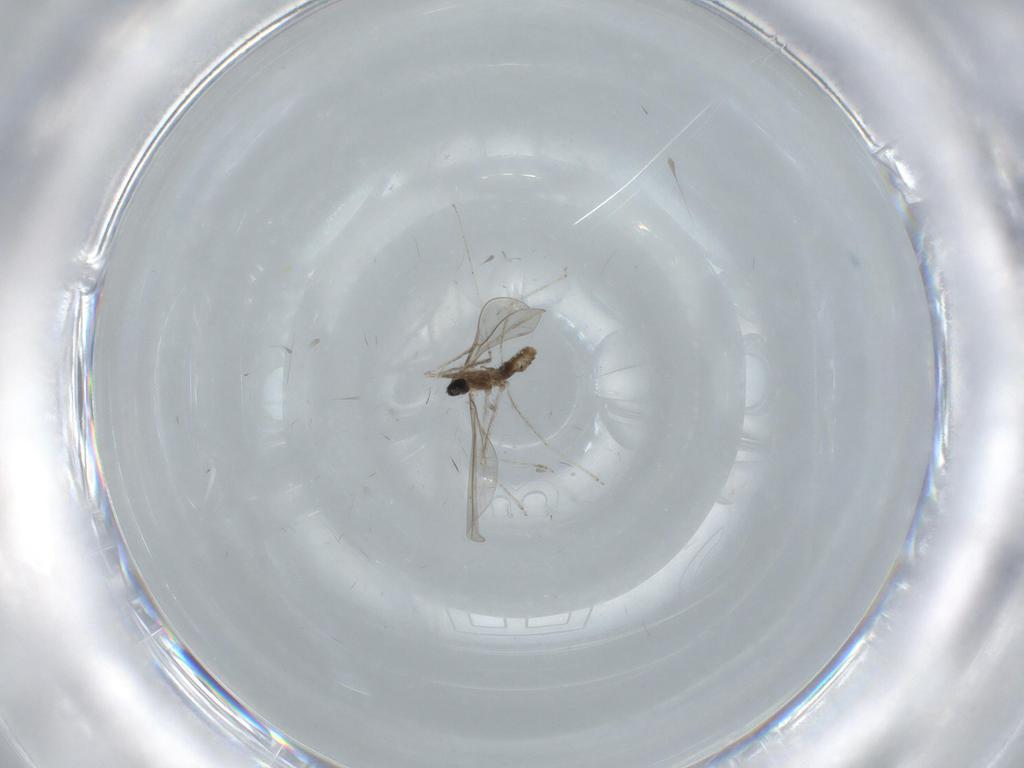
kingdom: Animalia
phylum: Arthropoda
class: Insecta
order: Diptera
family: Cecidomyiidae
